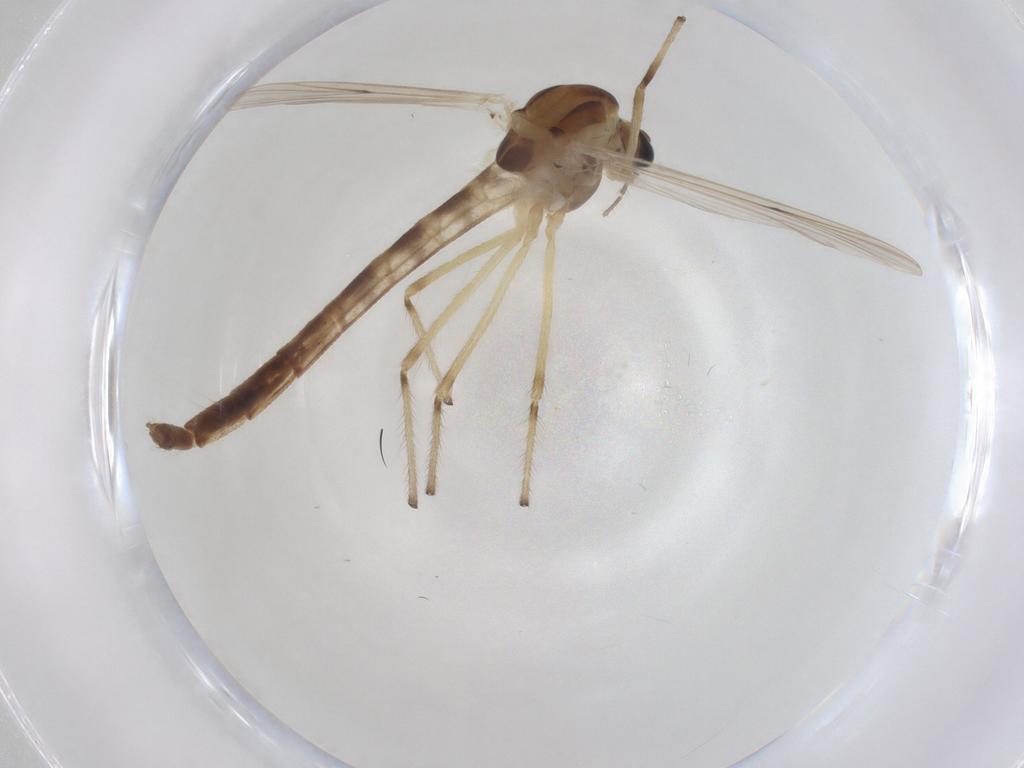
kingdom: Animalia
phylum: Arthropoda
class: Insecta
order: Diptera
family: Chironomidae
